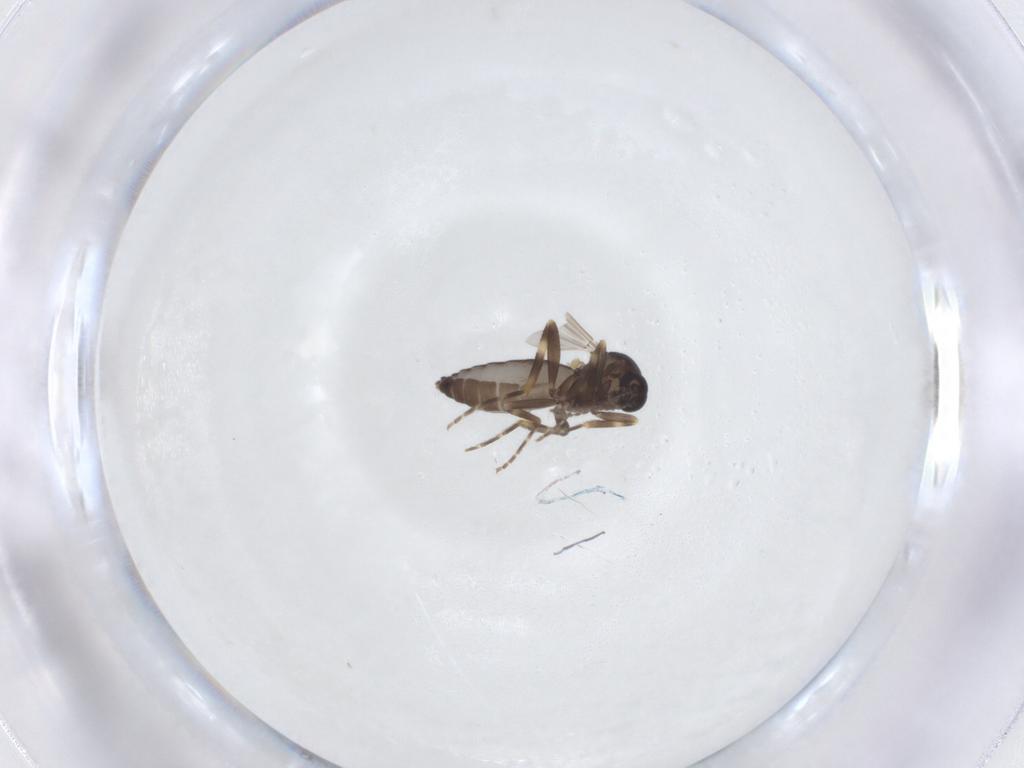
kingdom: Animalia
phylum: Arthropoda
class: Insecta
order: Diptera
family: Ceratopogonidae
